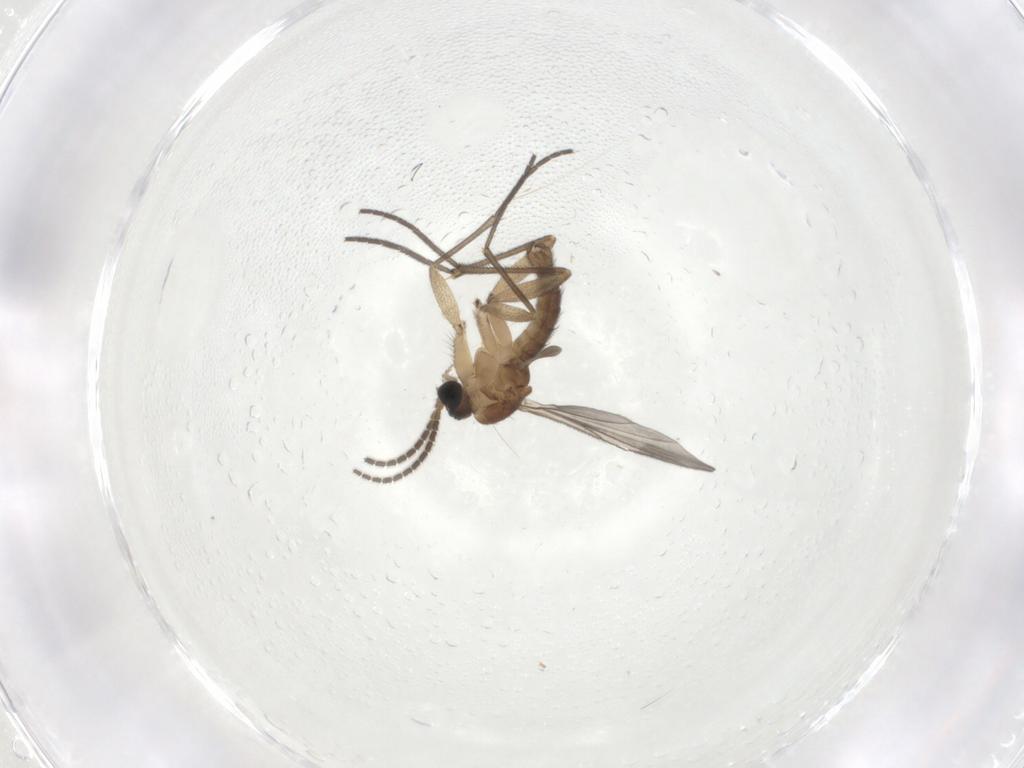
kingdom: Animalia
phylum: Arthropoda
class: Insecta
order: Diptera
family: Sciaridae
